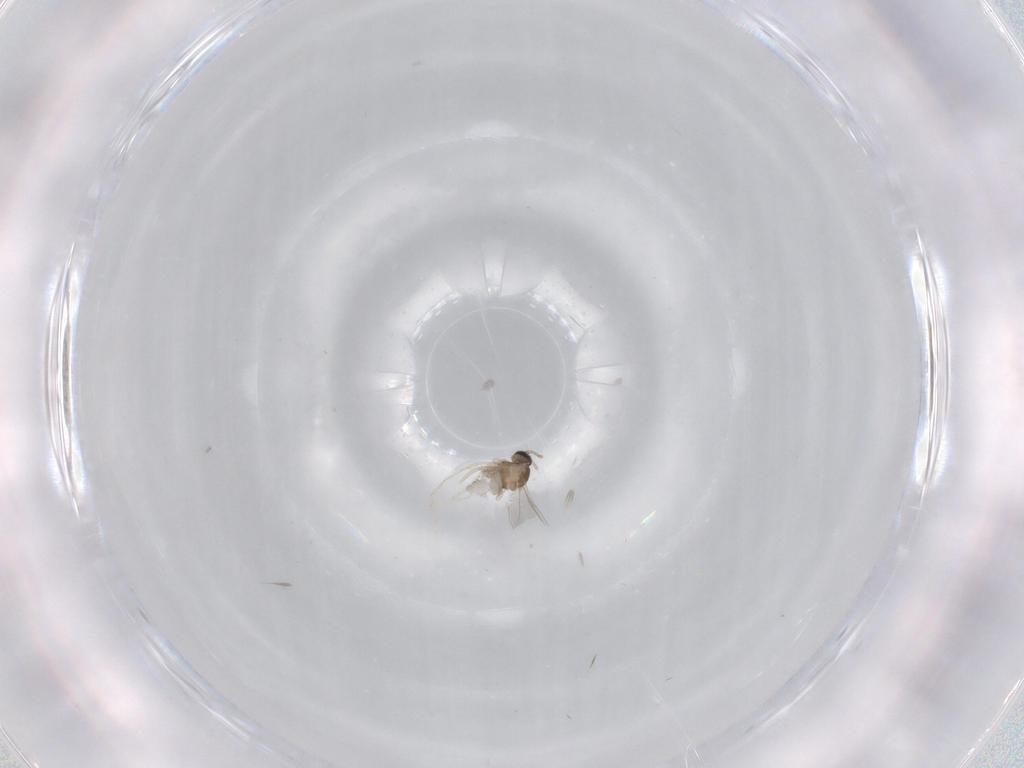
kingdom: Animalia
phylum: Arthropoda
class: Insecta
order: Diptera
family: Cecidomyiidae
